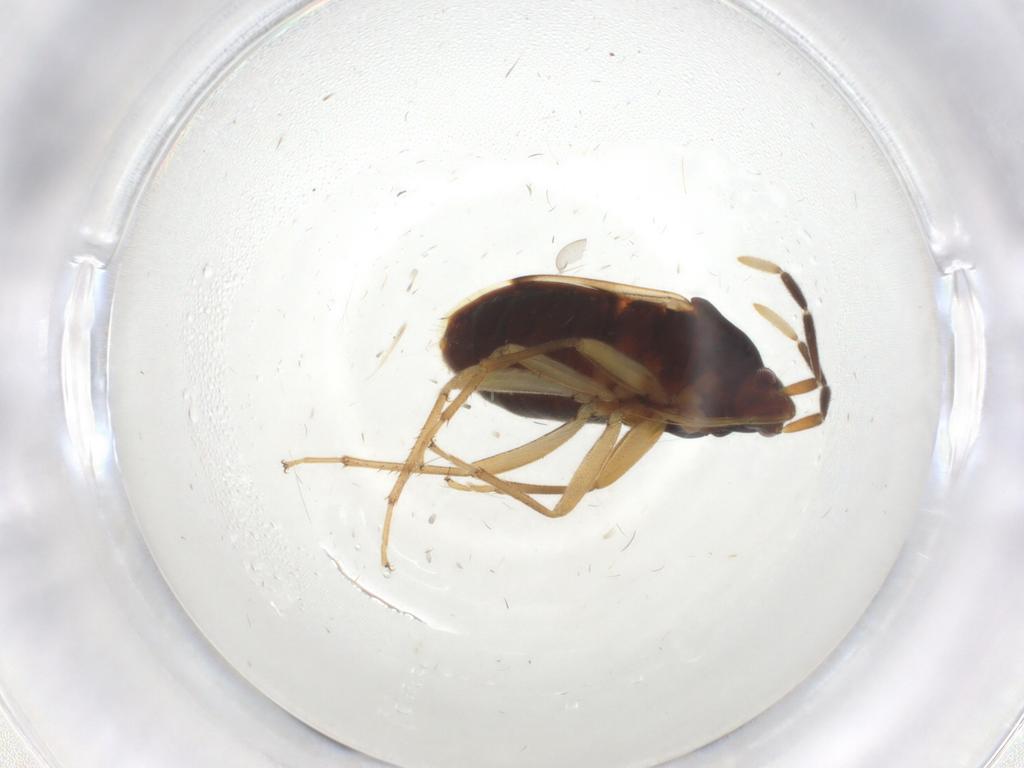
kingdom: Animalia
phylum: Arthropoda
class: Insecta
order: Hemiptera
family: Rhyparochromidae
